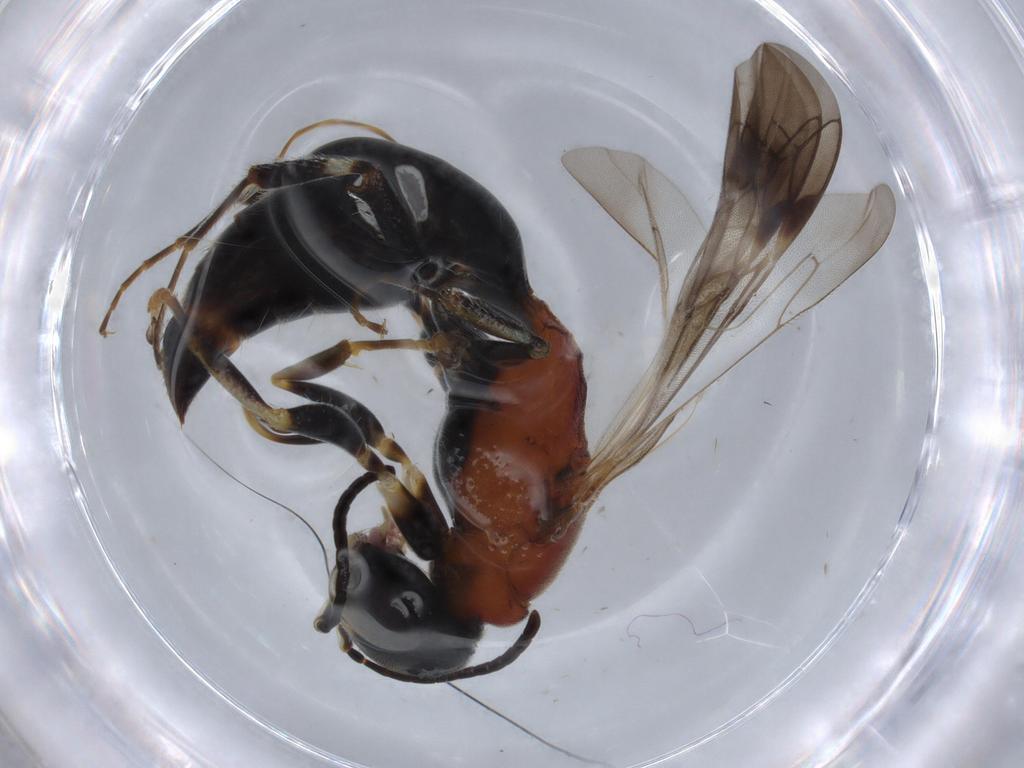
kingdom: Animalia
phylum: Arthropoda
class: Insecta
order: Hymenoptera
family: Bembicidae
